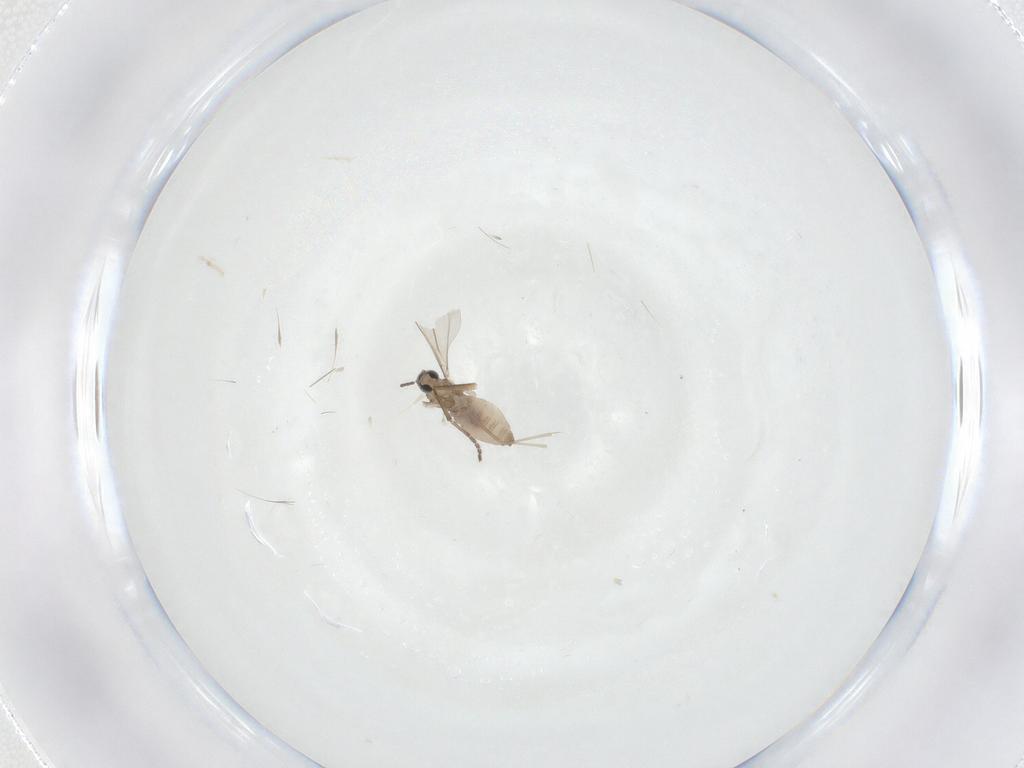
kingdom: Animalia
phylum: Arthropoda
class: Insecta
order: Diptera
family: Cecidomyiidae
